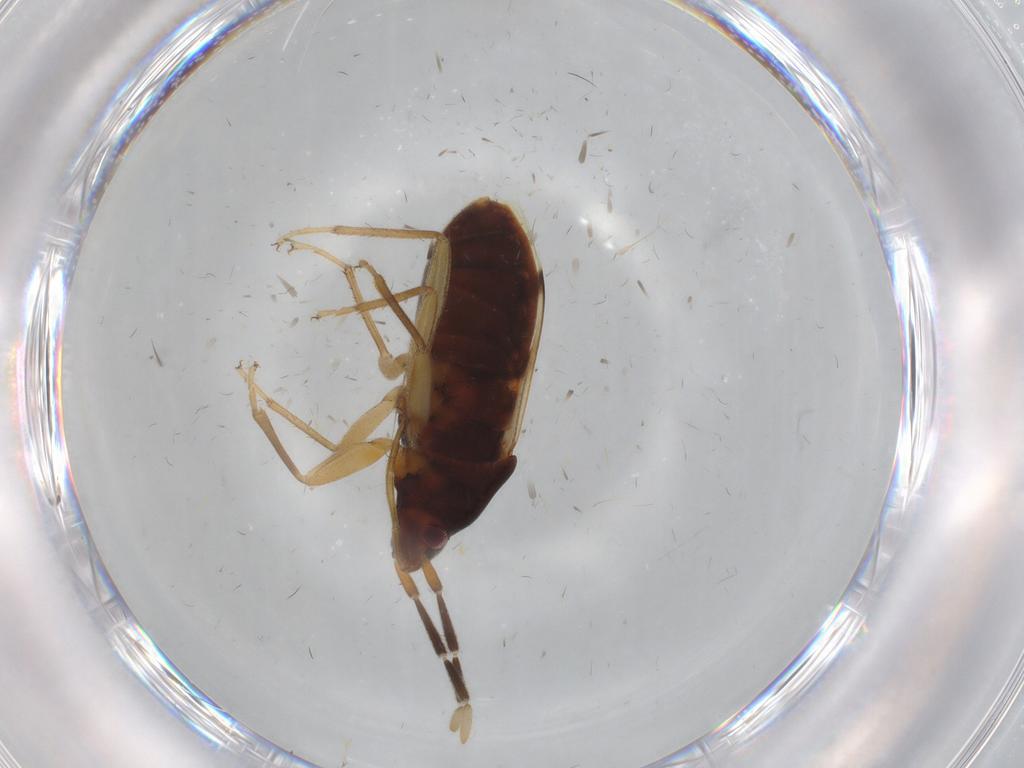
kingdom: Animalia
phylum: Arthropoda
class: Insecta
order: Hemiptera
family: Rhyparochromidae
